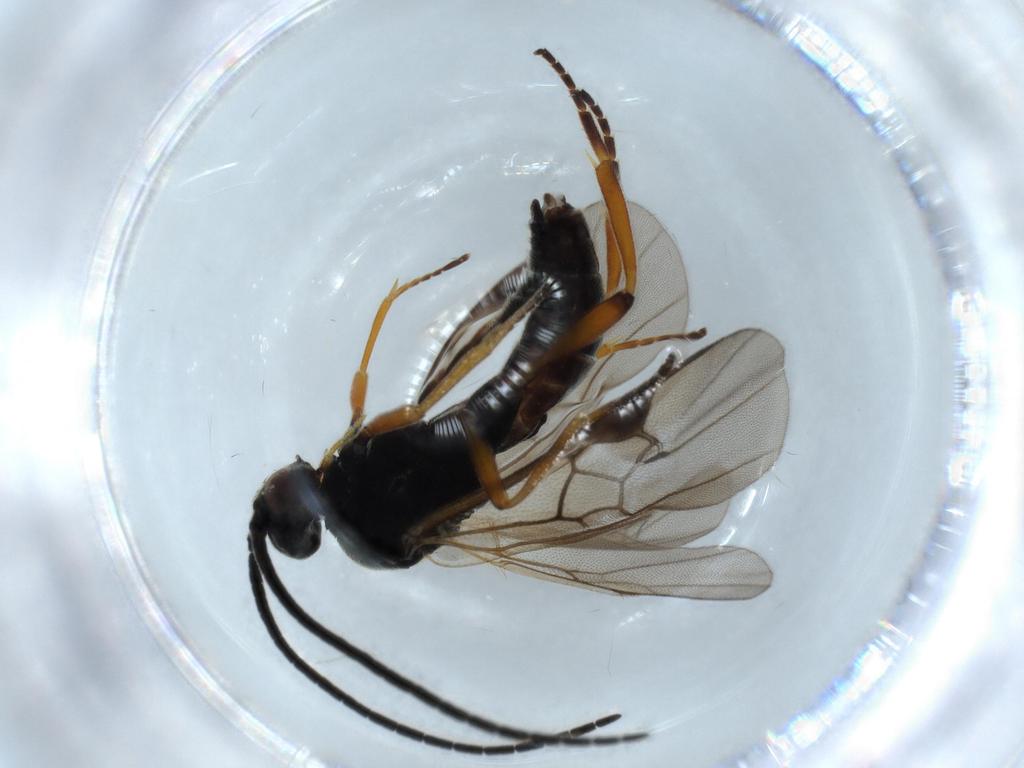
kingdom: Animalia
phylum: Arthropoda
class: Insecta
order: Hymenoptera
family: Braconidae
